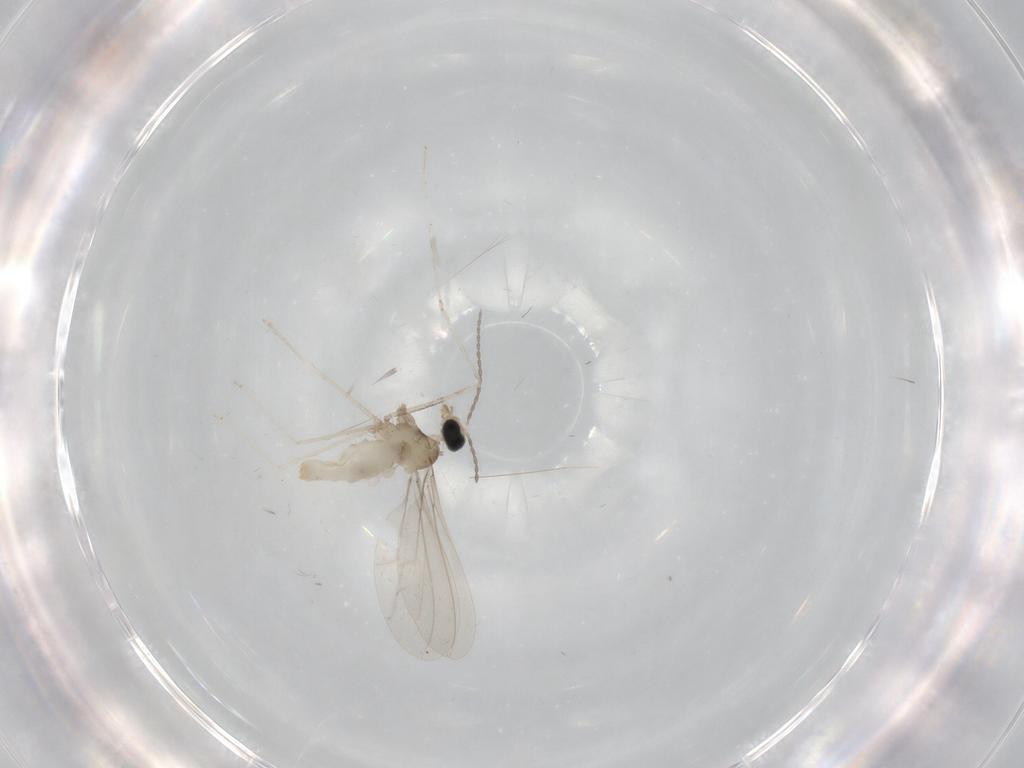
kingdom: Animalia
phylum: Arthropoda
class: Insecta
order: Diptera
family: Cecidomyiidae
